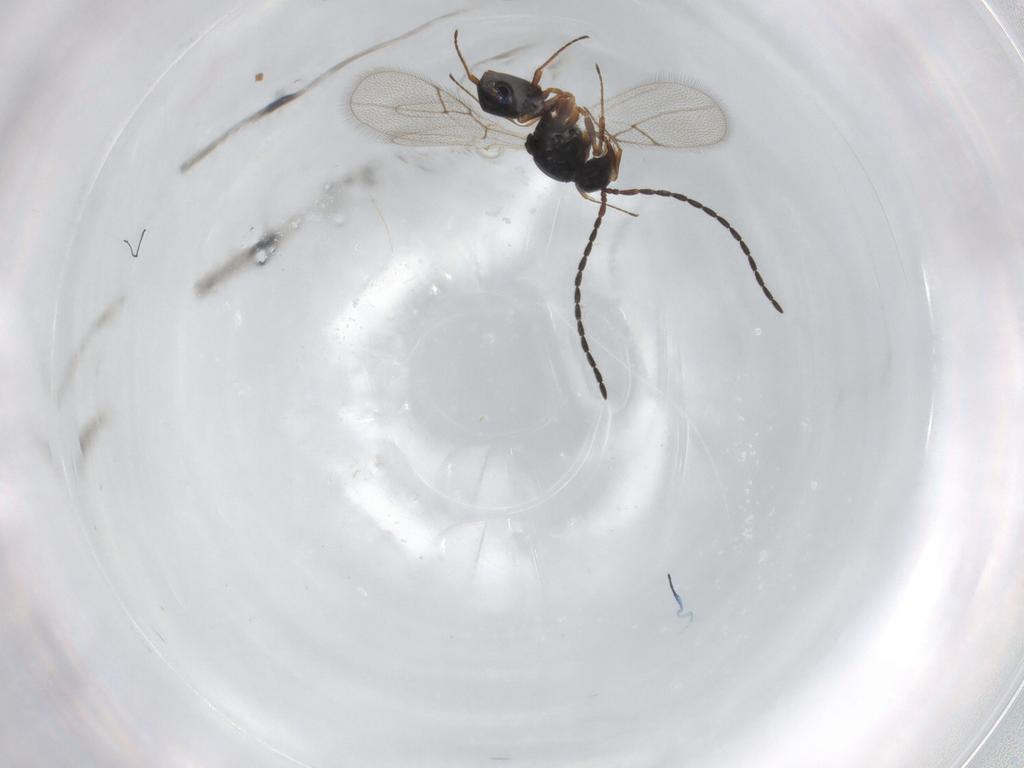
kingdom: Animalia
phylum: Arthropoda
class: Insecta
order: Hymenoptera
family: Figitidae
